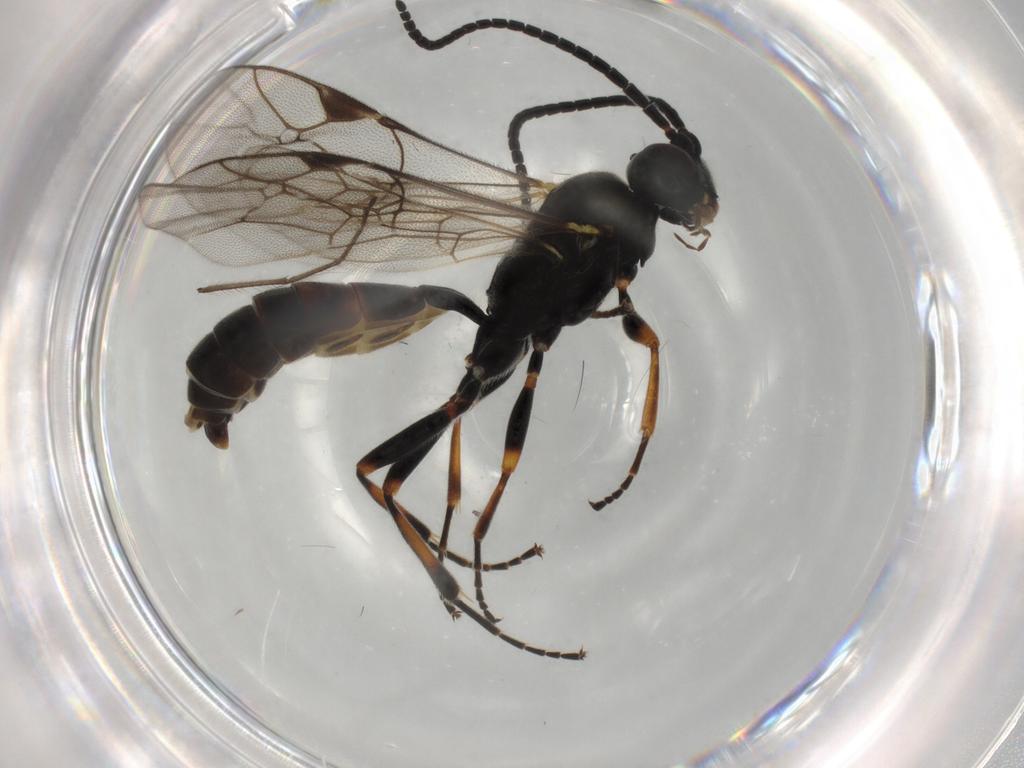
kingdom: Animalia
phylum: Arthropoda
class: Insecta
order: Hymenoptera
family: Ichneumonidae
